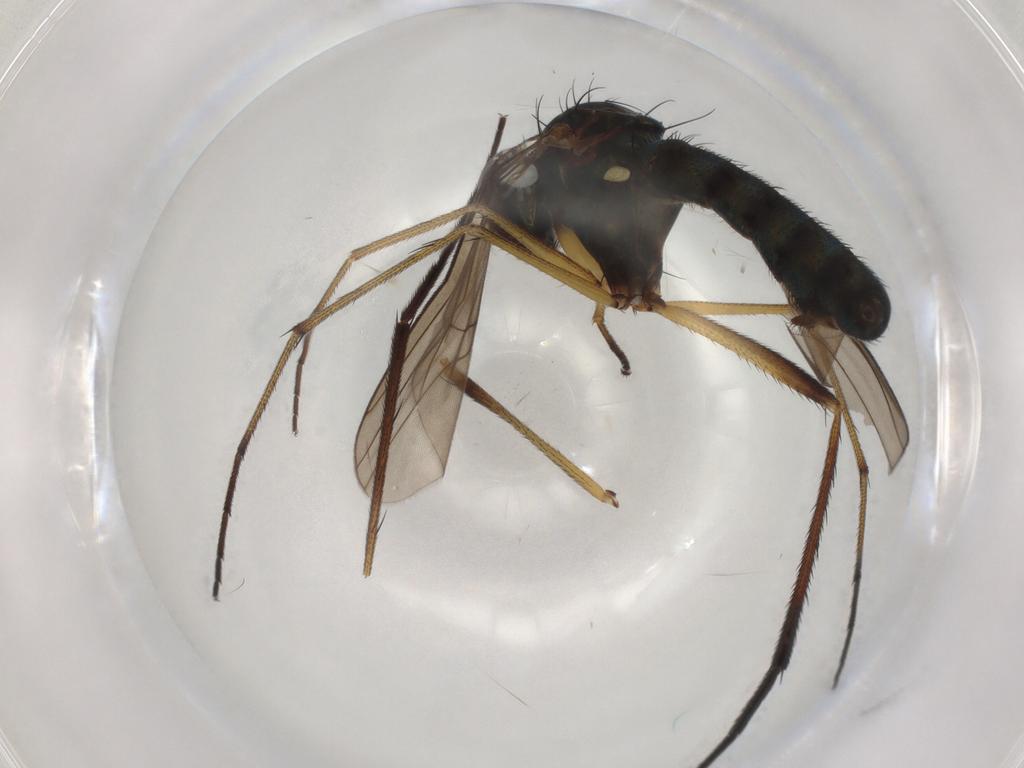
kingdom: Animalia
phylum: Arthropoda
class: Insecta
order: Diptera
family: Dolichopodidae
